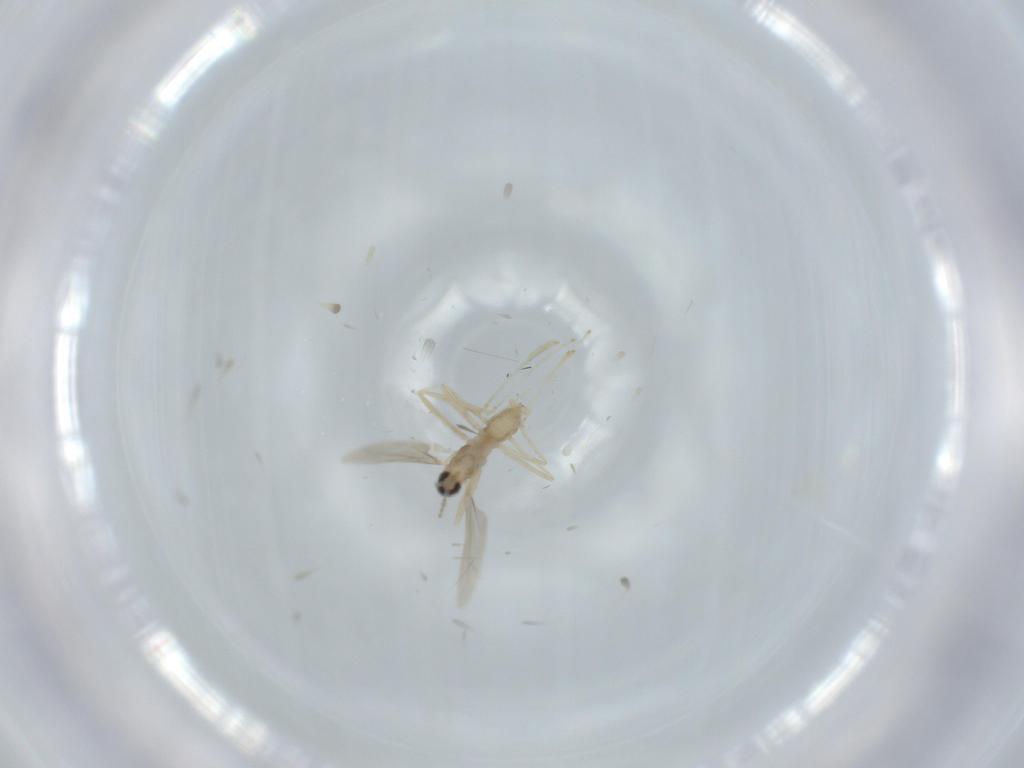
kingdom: Animalia
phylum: Arthropoda
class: Insecta
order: Diptera
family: Cecidomyiidae
